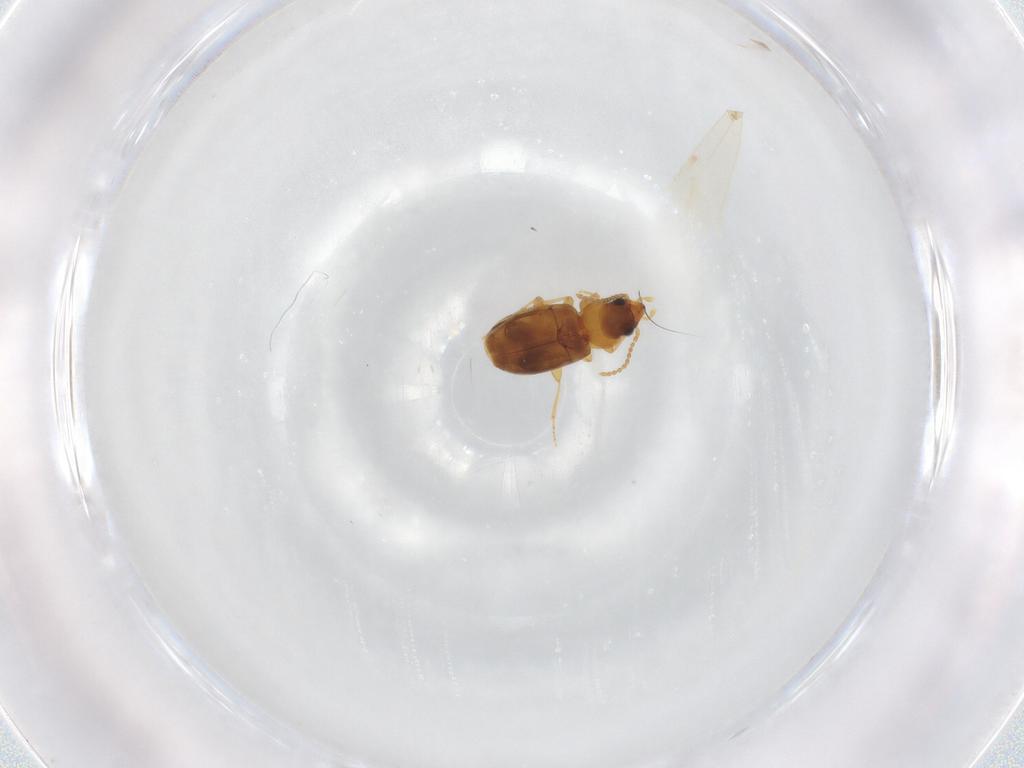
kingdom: Animalia
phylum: Arthropoda
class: Insecta
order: Coleoptera
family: Carabidae
